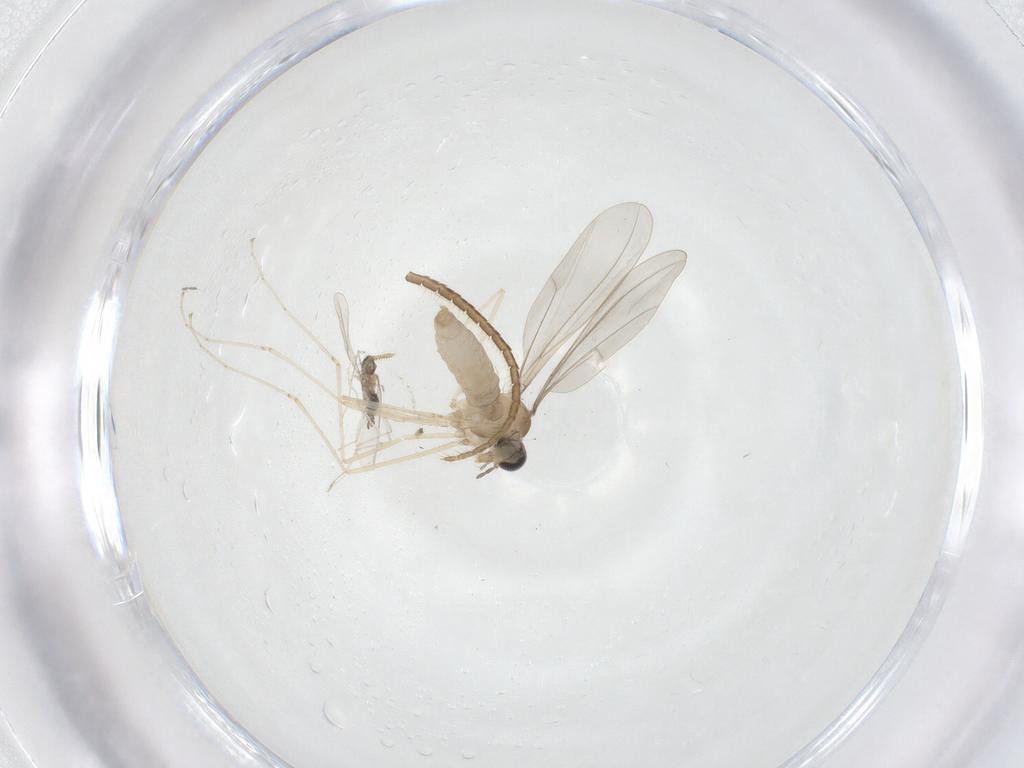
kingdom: Animalia
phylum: Arthropoda
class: Insecta
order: Diptera
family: Cecidomyiidae
